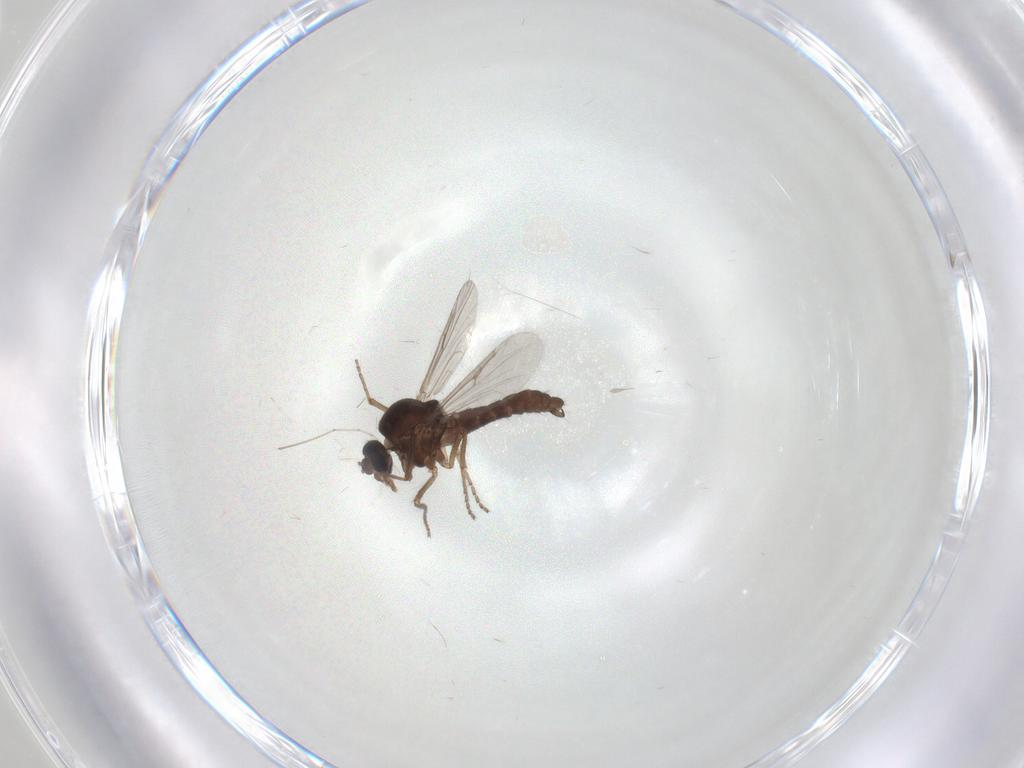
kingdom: Animalia
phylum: Arthropoda
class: Insecta
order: Diptera
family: Ceratopogonidae
